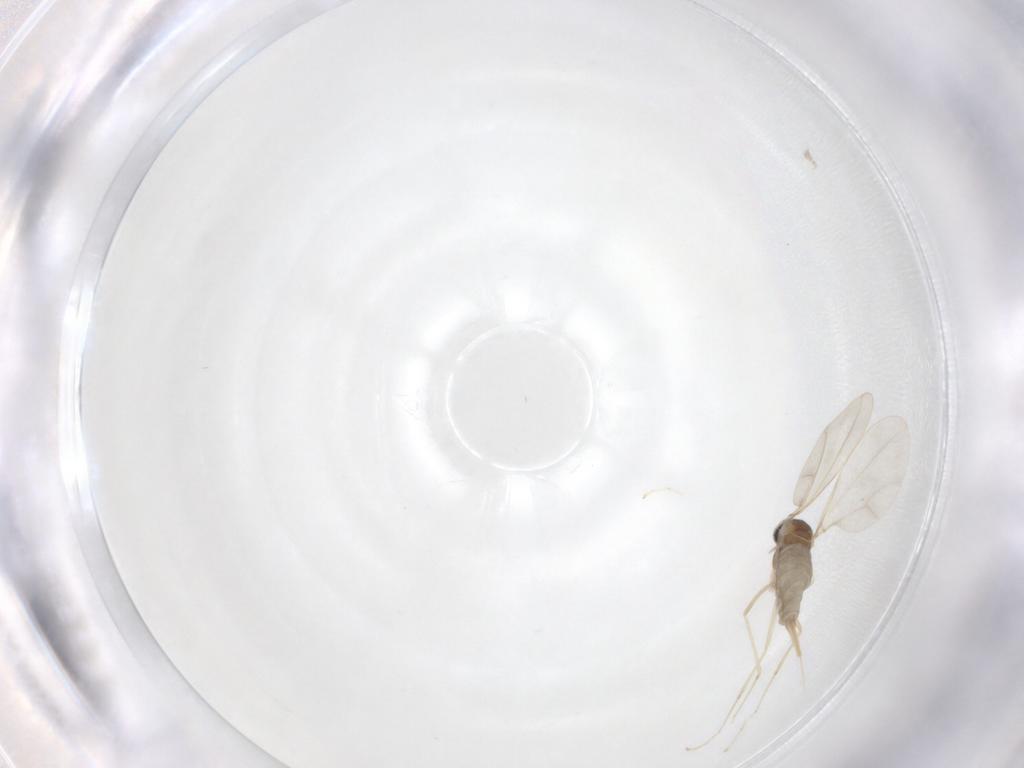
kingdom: Animalia
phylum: Arthropoda
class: Insecta
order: Diptera
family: Cecidomyiidae
